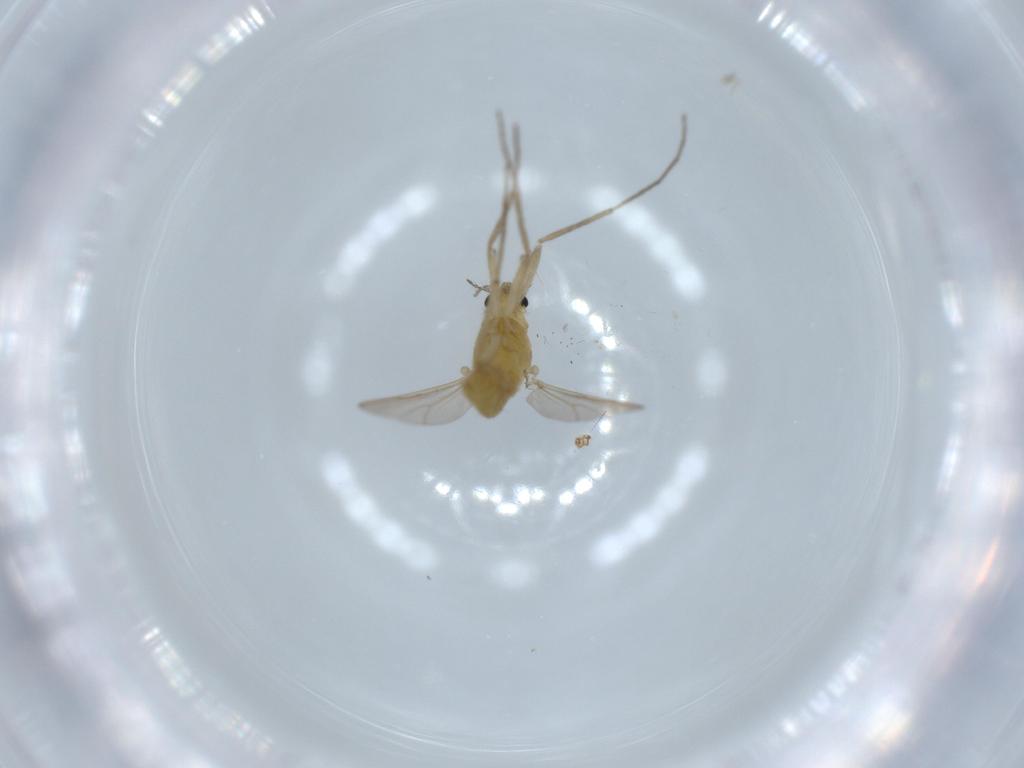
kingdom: Animalia
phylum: Arthropoda
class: Insecta
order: Diptera
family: Chironomidae
